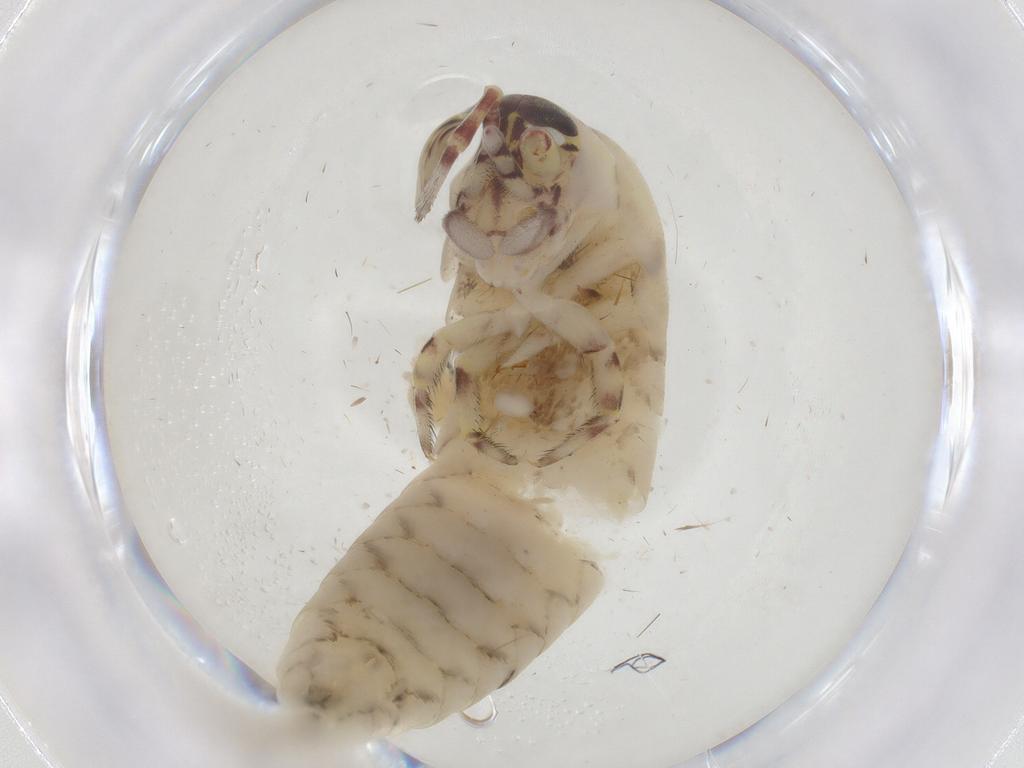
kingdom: Animalia
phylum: Arthropoda
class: Insecta
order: Archaeognatha
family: Meinertellidae
